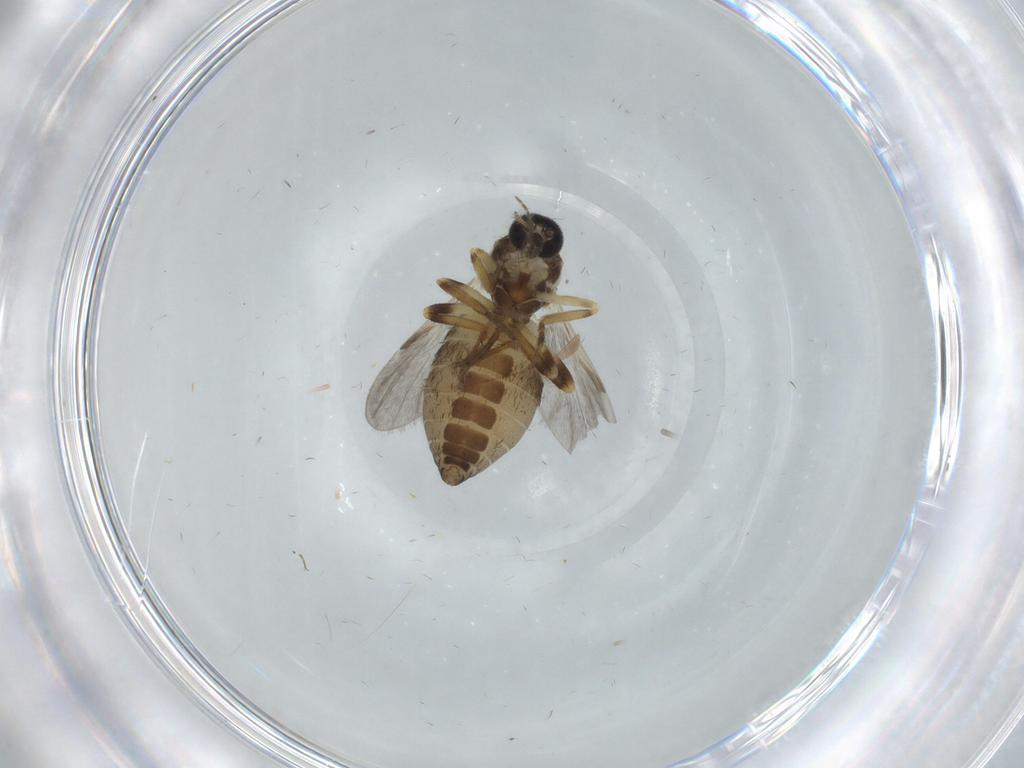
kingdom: Animalia
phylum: Arthropoda
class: Insecta
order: Diptera
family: Ceratopogonidae
